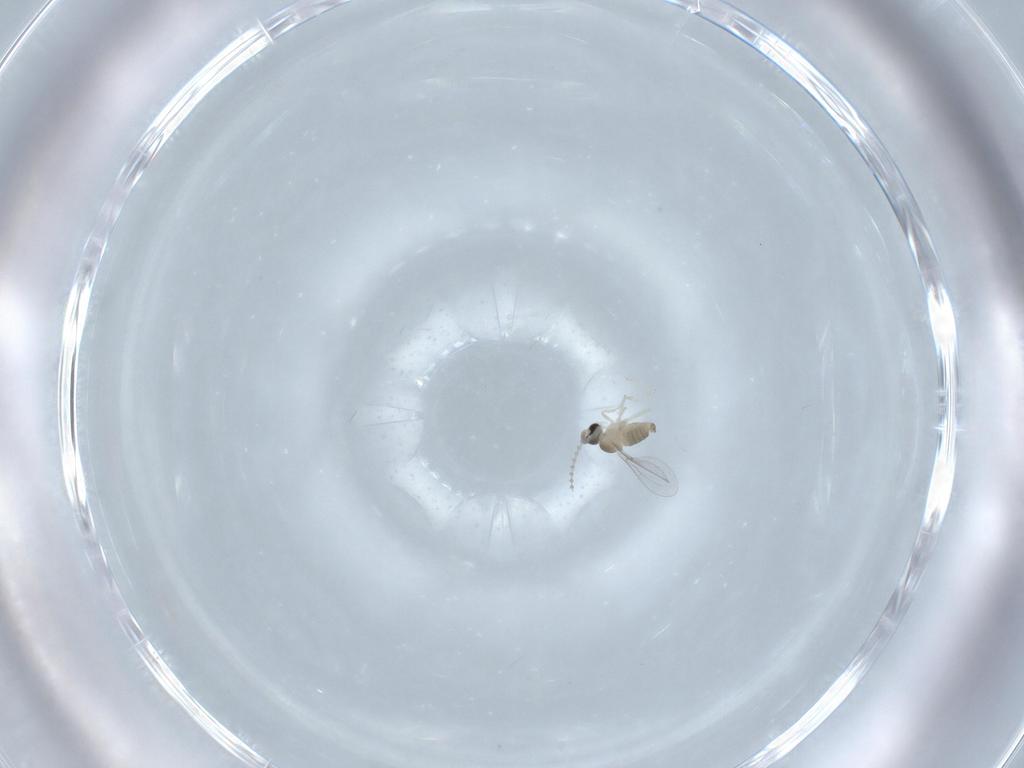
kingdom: Animalia
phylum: Arthropoda
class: Insecta
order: Diptera
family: Cecidomyiidae
